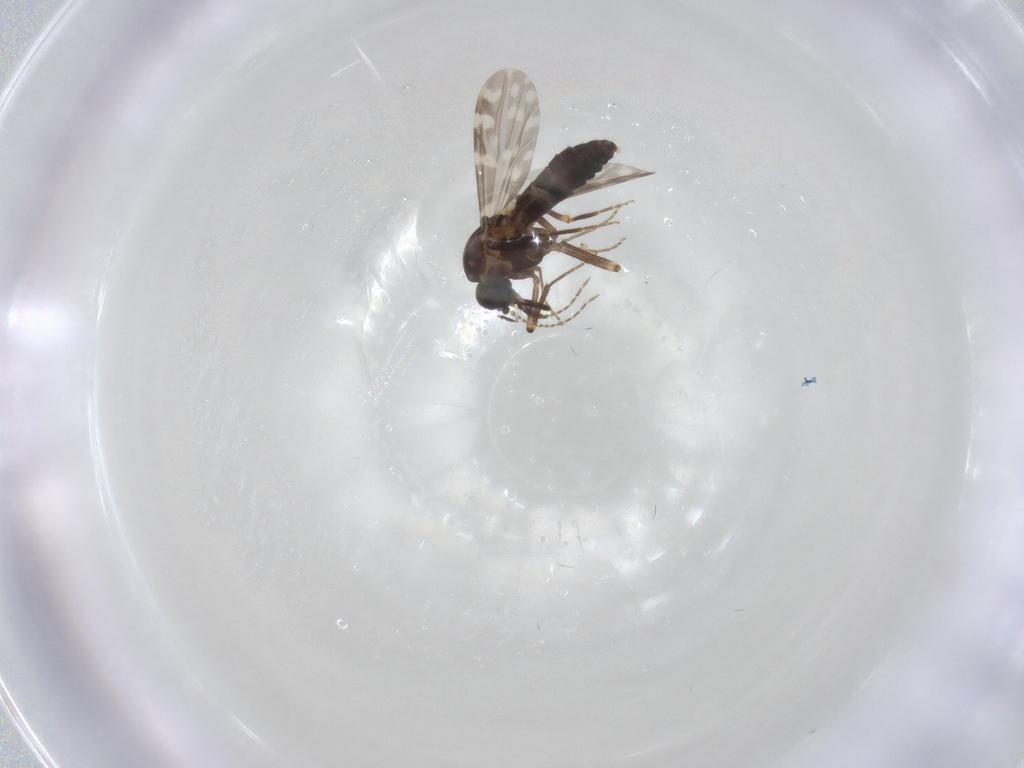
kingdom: Animalia
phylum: Arthropoda
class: Insecta
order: Diptera
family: Ceratopogonidae
